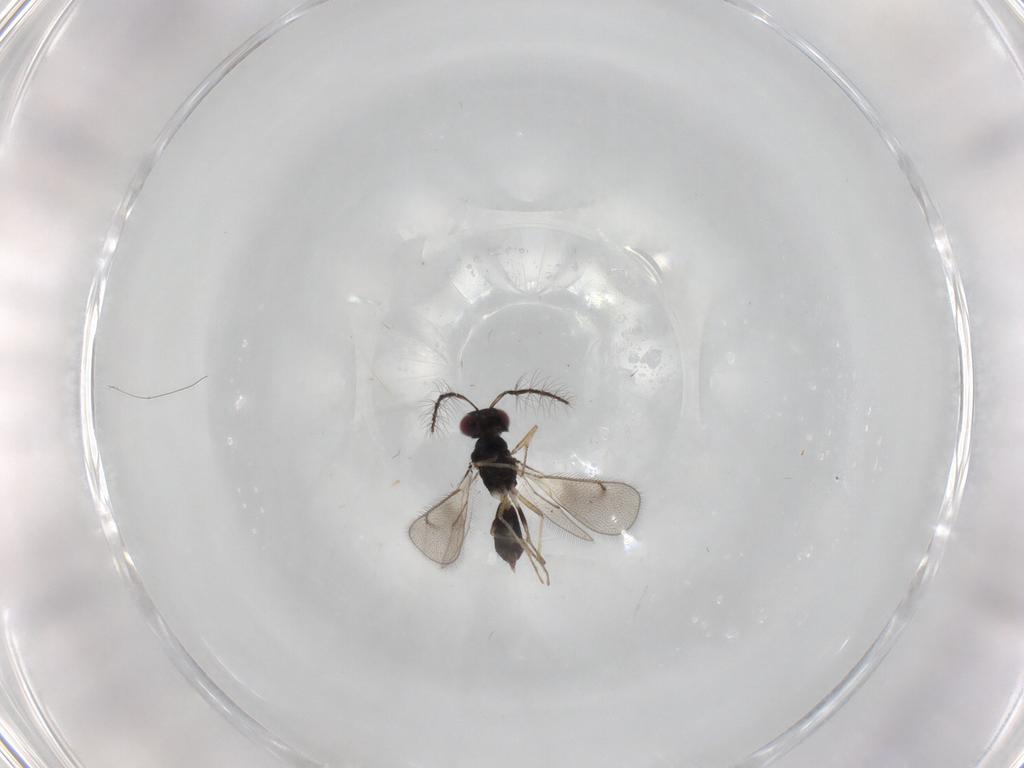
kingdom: Animalia
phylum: Arthropoda
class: Insecta
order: Hymenoptera
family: Eulophidae
